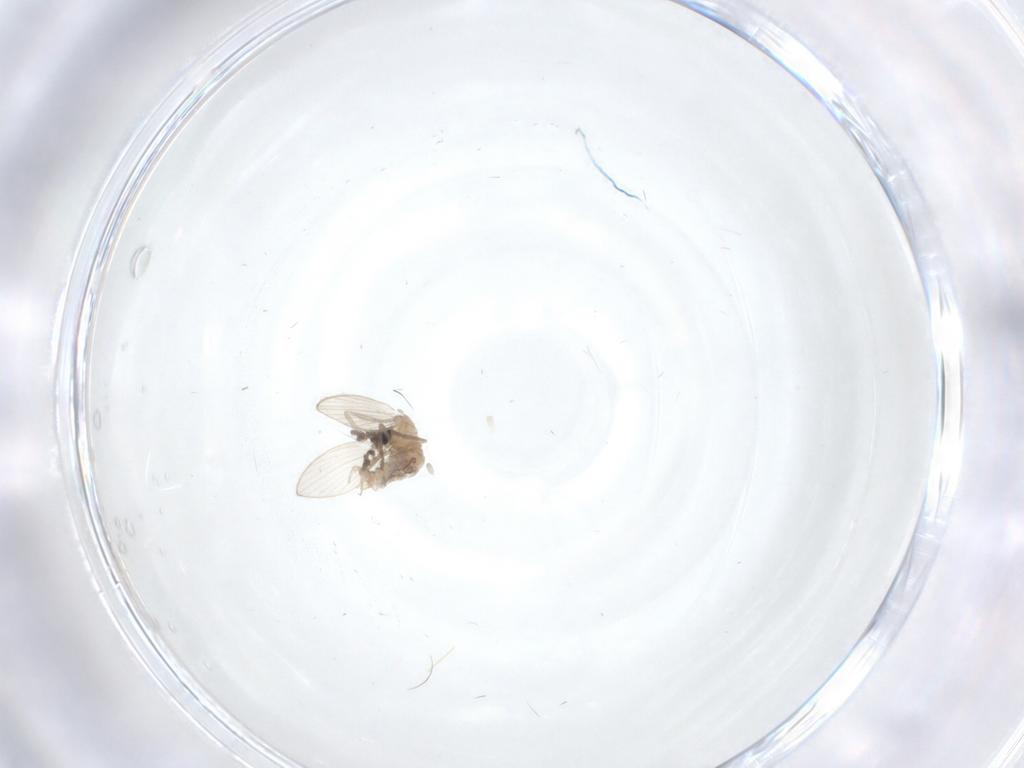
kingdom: Animalia
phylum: Arthropoda
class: Insecta
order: Diptera
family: Psychodidae
